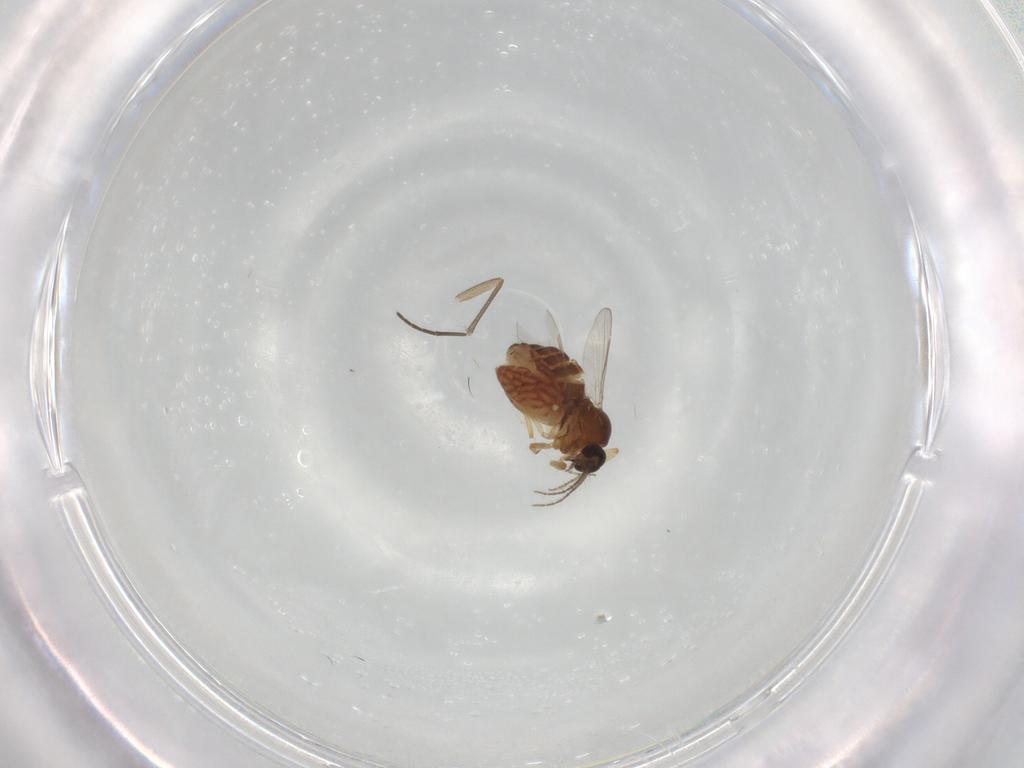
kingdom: Animalia
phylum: Arthropoda
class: Insecta
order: Diptera
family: Ceratopogonidae
